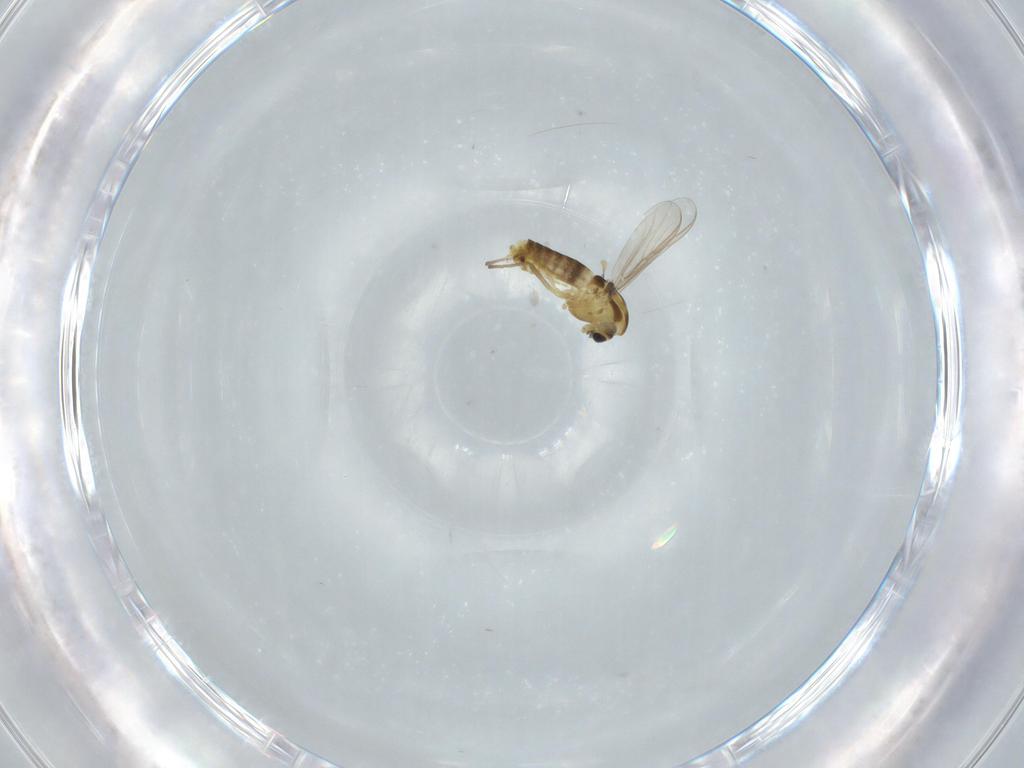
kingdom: Animalia
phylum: Arthropoda
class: Insecta
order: Diptera
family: Chironomidae
